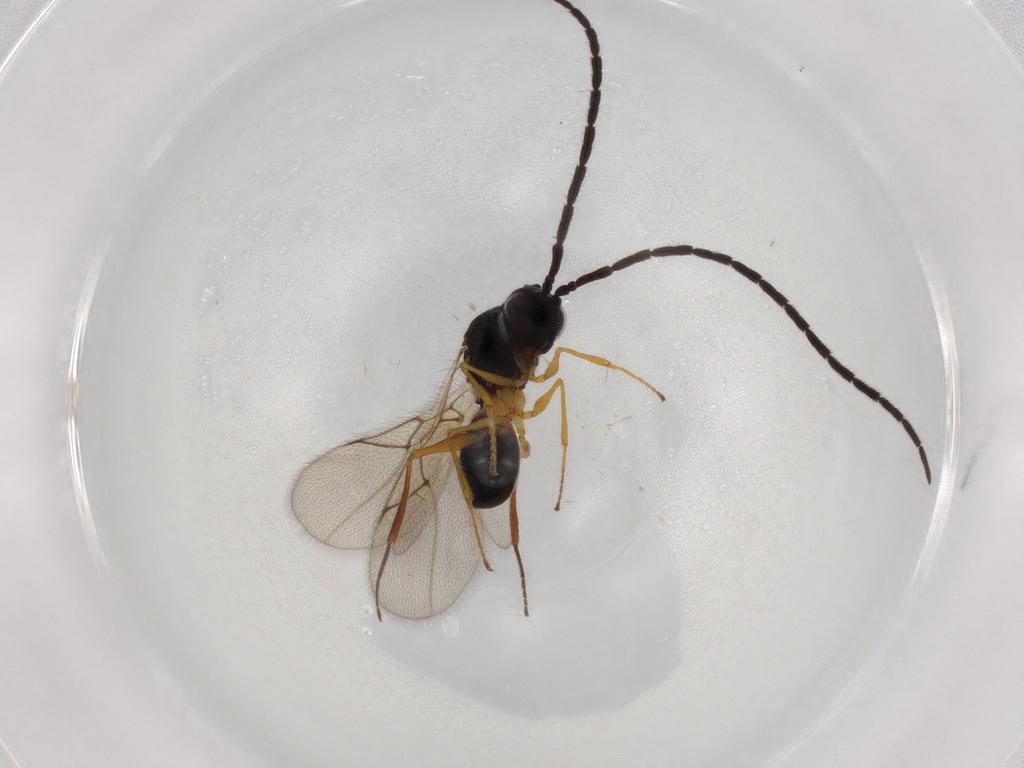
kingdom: Animalia
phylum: Arthropoda
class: Insecta
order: Hymenoptera
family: Figitidae
